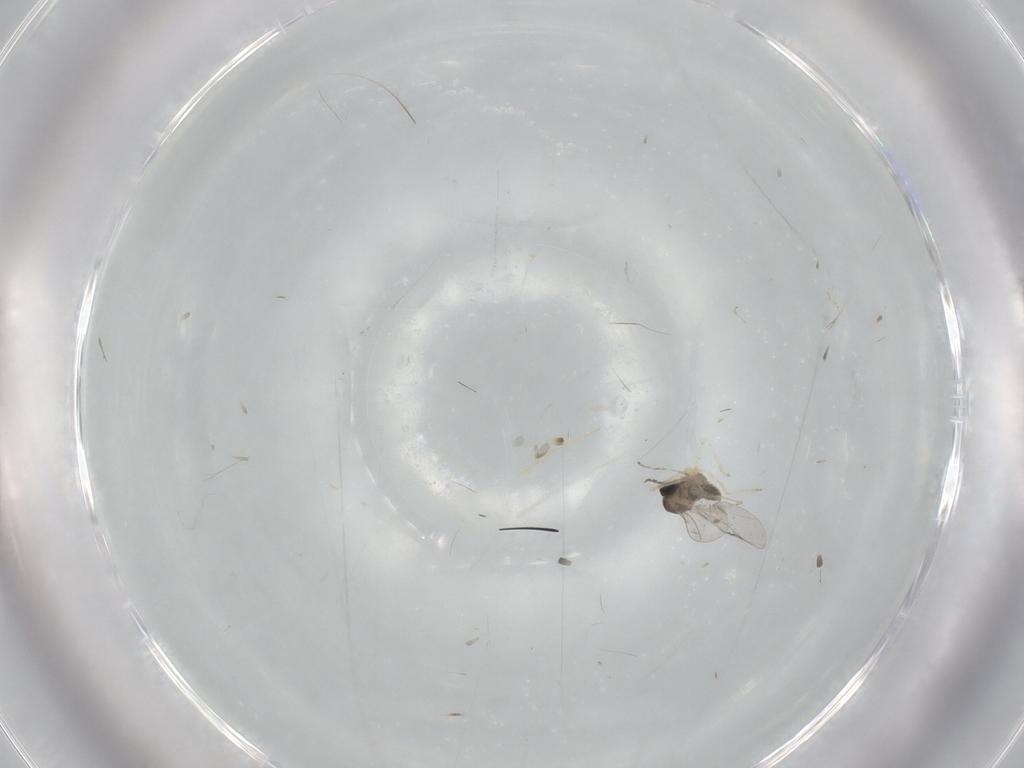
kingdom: Animalia
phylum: Arthropoda
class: Insecta
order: Diptera
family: Cecidomyiidae
